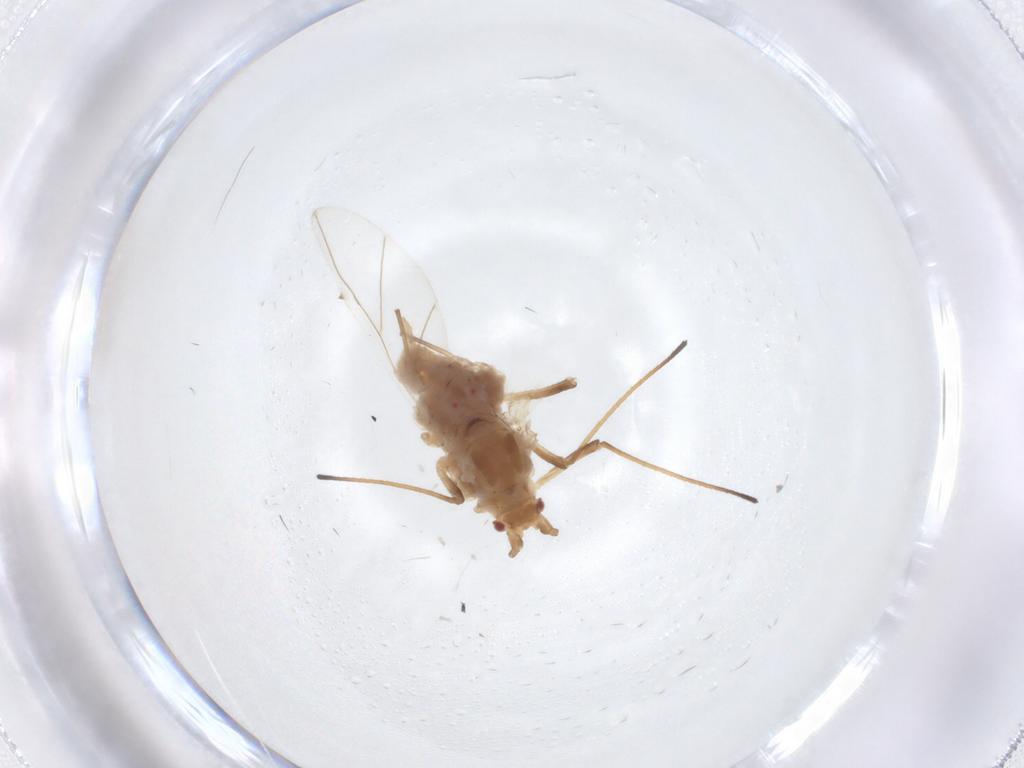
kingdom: Animalia
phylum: Arthropoda
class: Insecta
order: Hemiptera
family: Aphididae
